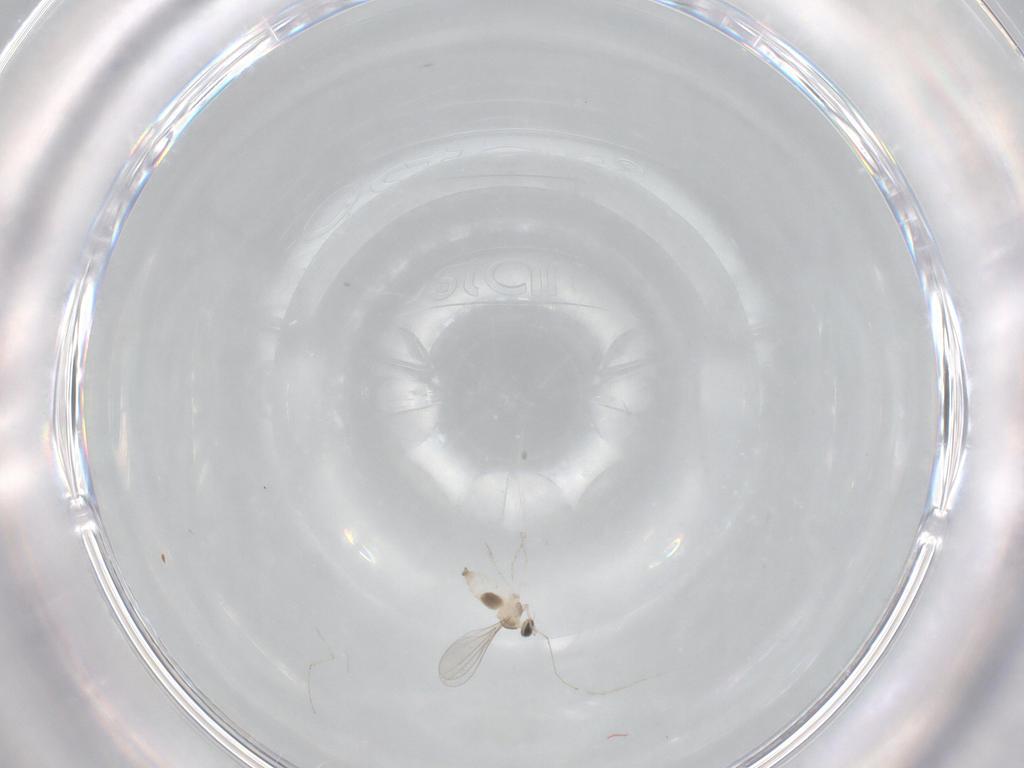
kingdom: Animalia
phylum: Arthropoda
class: Insecta
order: Diptera
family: Cecidomyiidae
